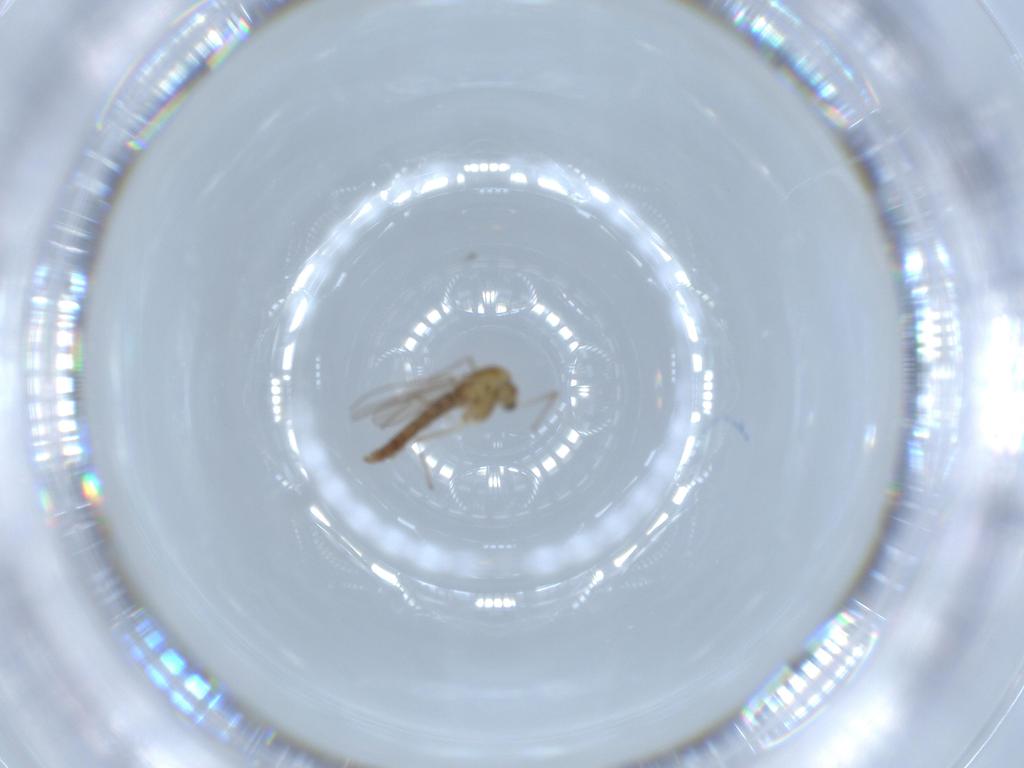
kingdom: Animalia
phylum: Arthropoda
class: Insecta
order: Diptera
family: Chironomidae
